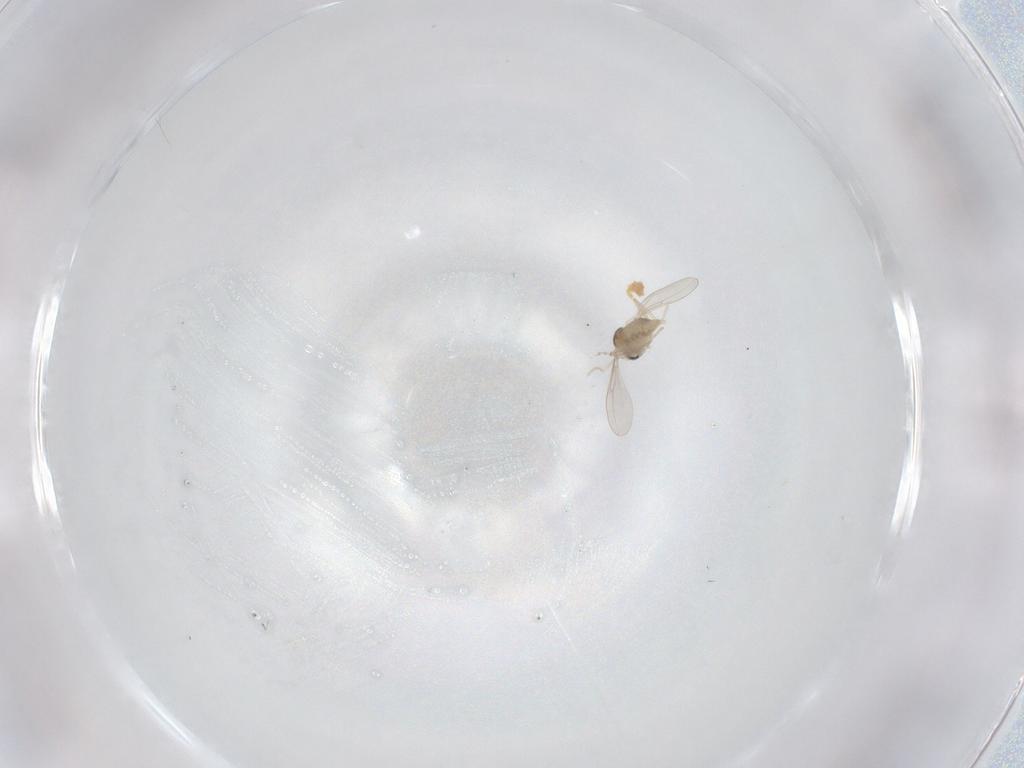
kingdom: Animalia
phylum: Arthropoda
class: Insecta
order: Diptera
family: Cecidomyiidae
